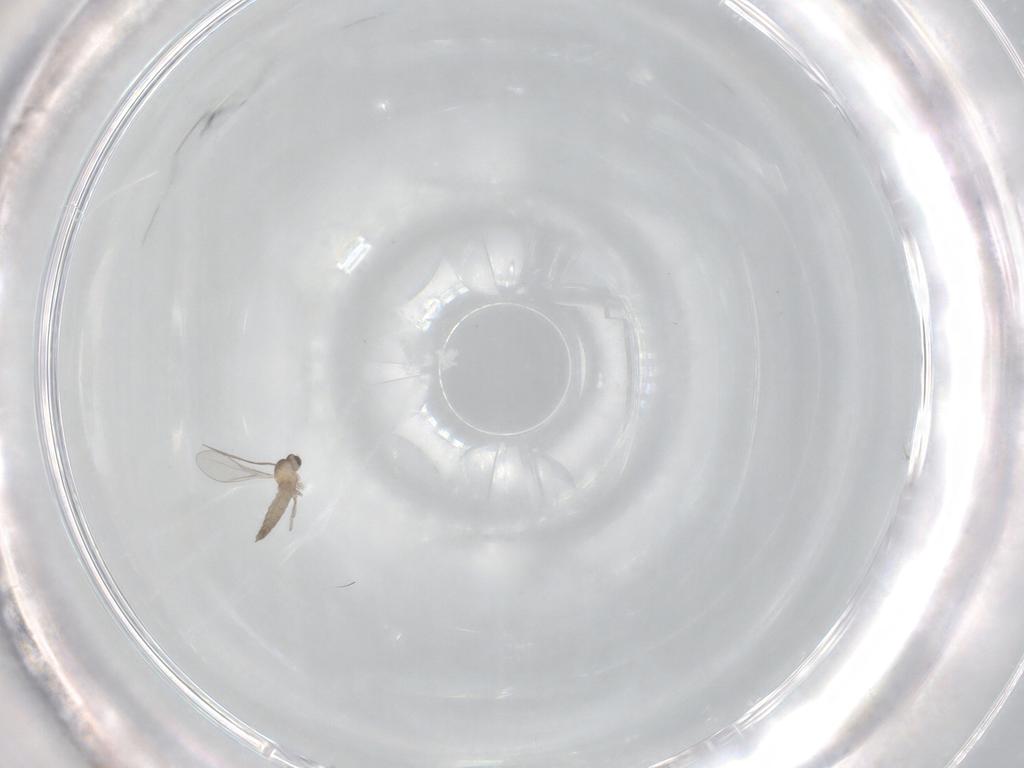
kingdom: Animalia
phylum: Arthropoda
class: Insecta
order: Diptera
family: Cecidomyiidae
